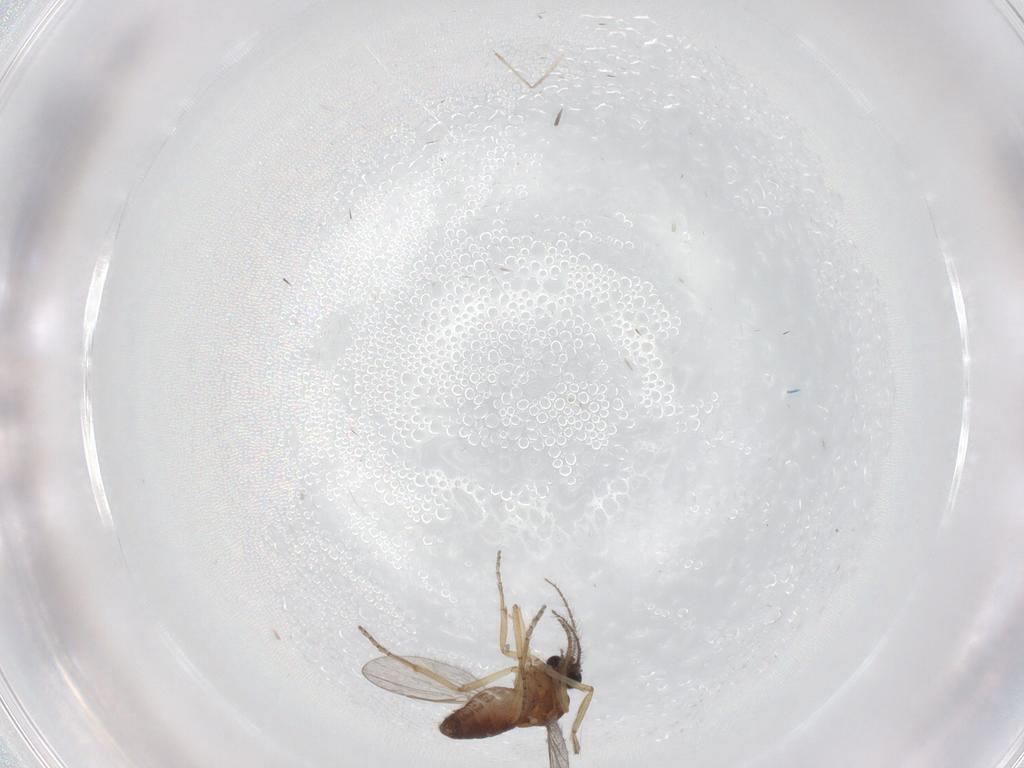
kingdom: Animalia
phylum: Arthropoda
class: Insecta
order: Diptera
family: Ceratopogonidae
